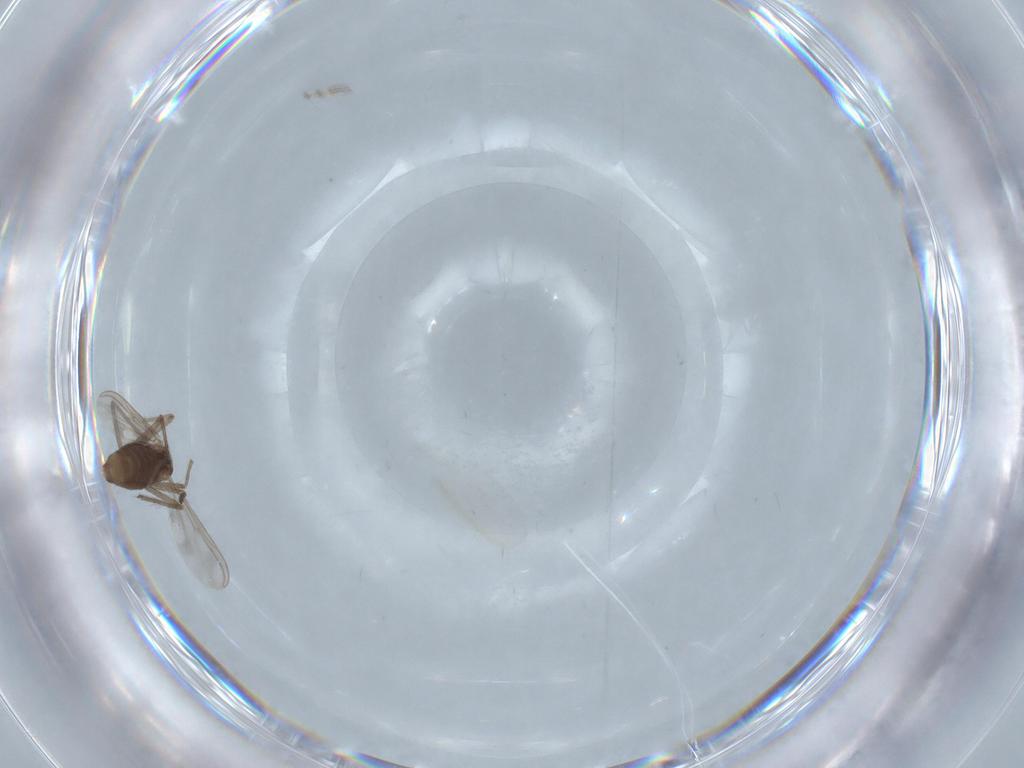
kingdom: Animalia
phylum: Arthropoda
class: Insecta
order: Diptera
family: Chironomidae
